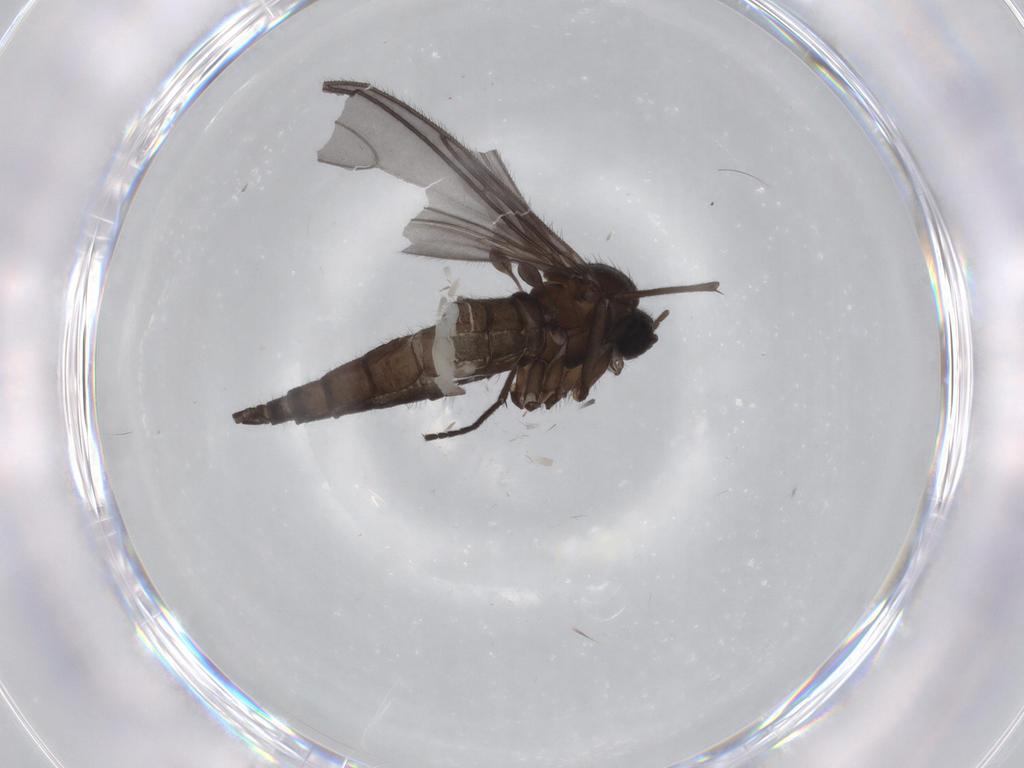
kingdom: Animalia
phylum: Arthropoda
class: Insecta
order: Diptera
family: Sciaridae
